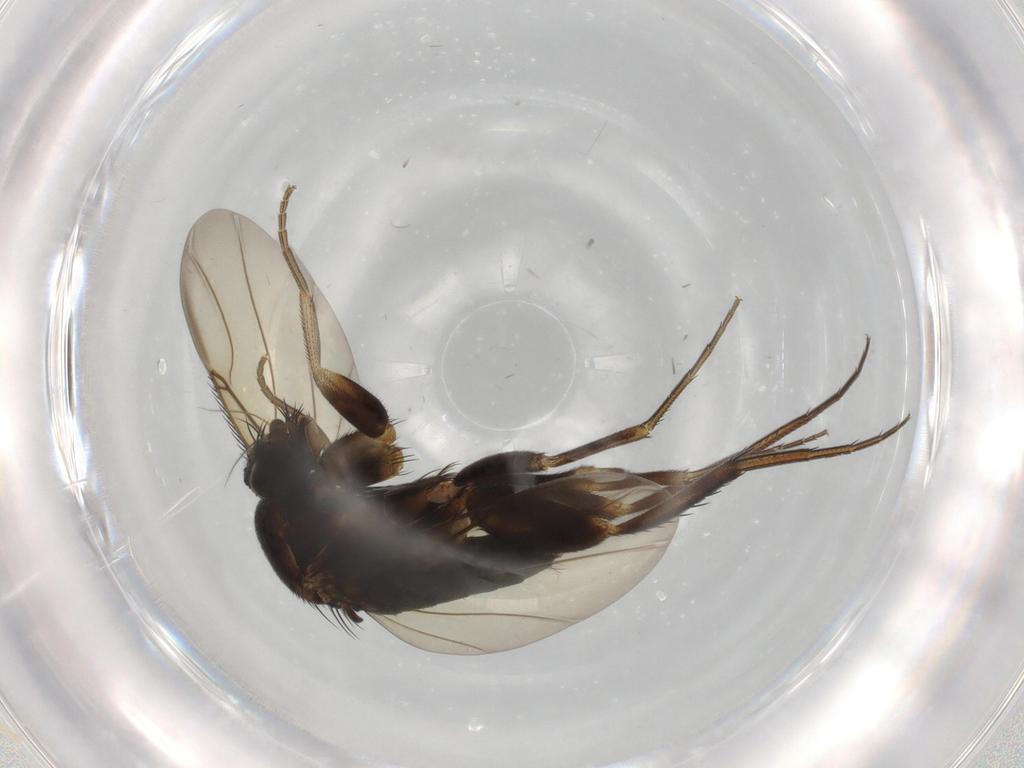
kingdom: Animalia
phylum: Arthropoda
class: Insecta
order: Diptera
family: Phoridae
